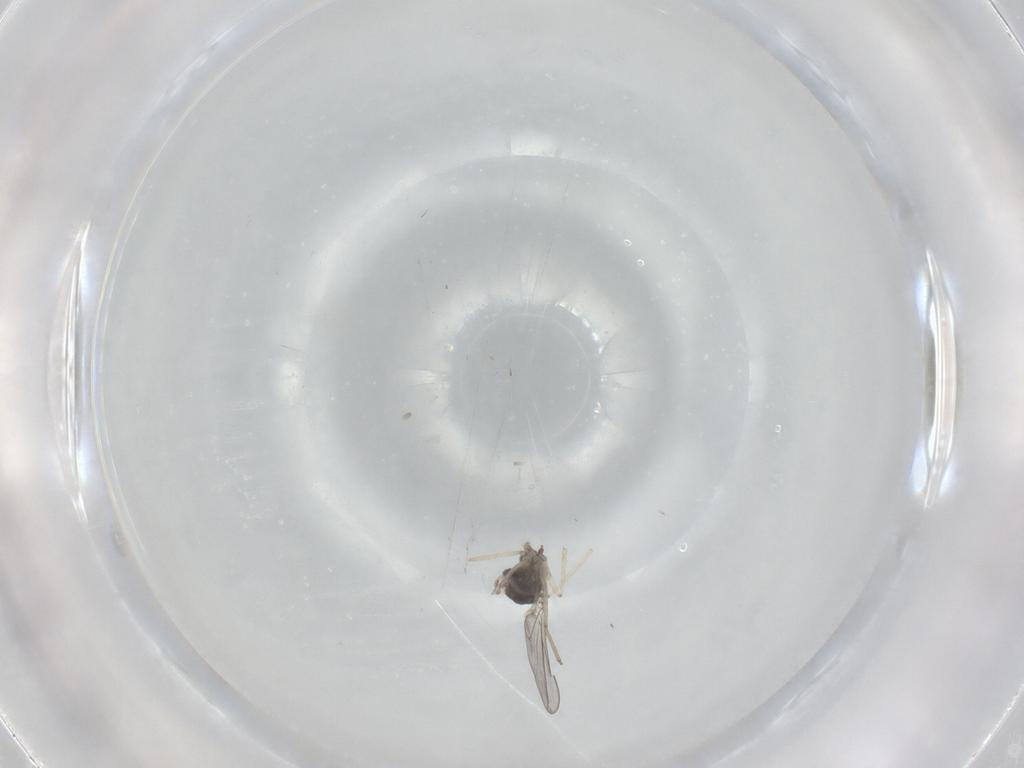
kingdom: Animalia
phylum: Arthropoda
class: Insecta
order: Diptera
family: Cecidomyiidae
